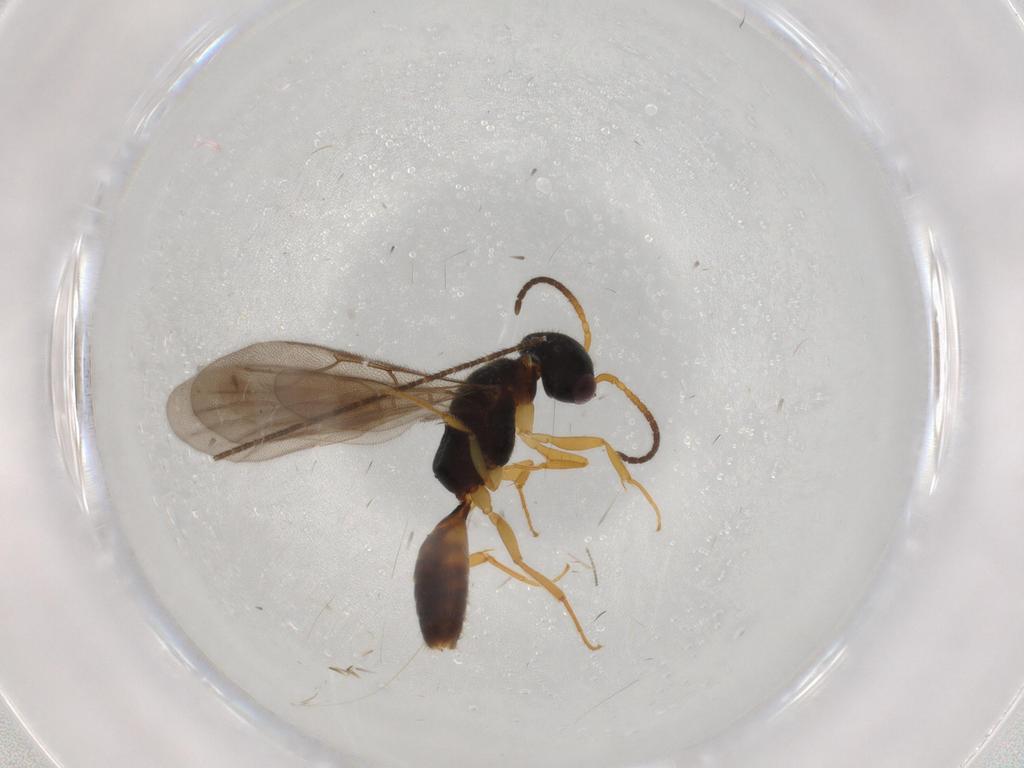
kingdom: Animalia
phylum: Arthropoda
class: Insecta
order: Hymenoptera
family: Bethylidae
